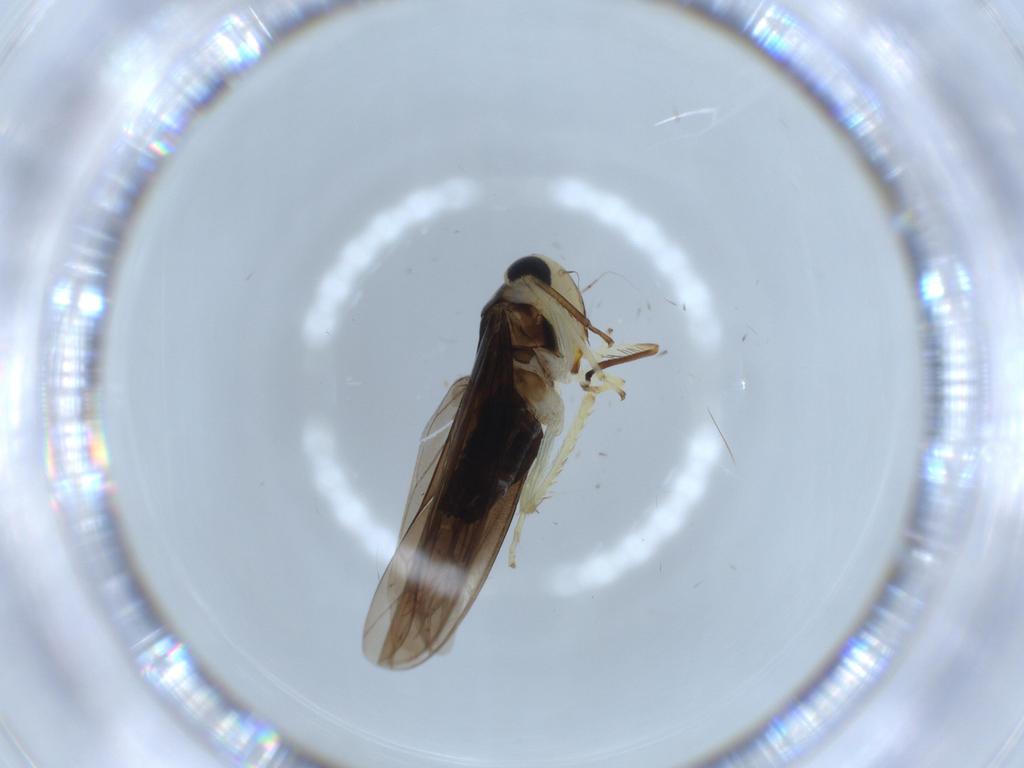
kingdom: Animalia
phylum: Arthropoda
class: Insecta
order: Hemiptera
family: Cicadellidae
